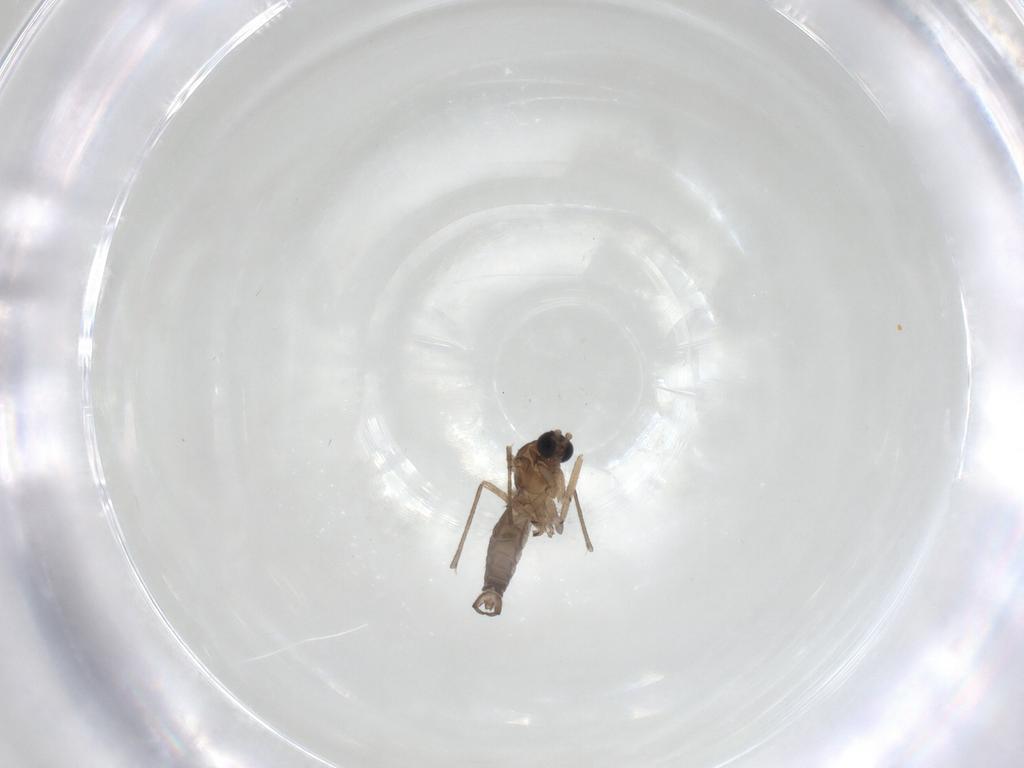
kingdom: Animalia
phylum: Arthropoda
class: Insecta
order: Diptera
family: Sciaridae
